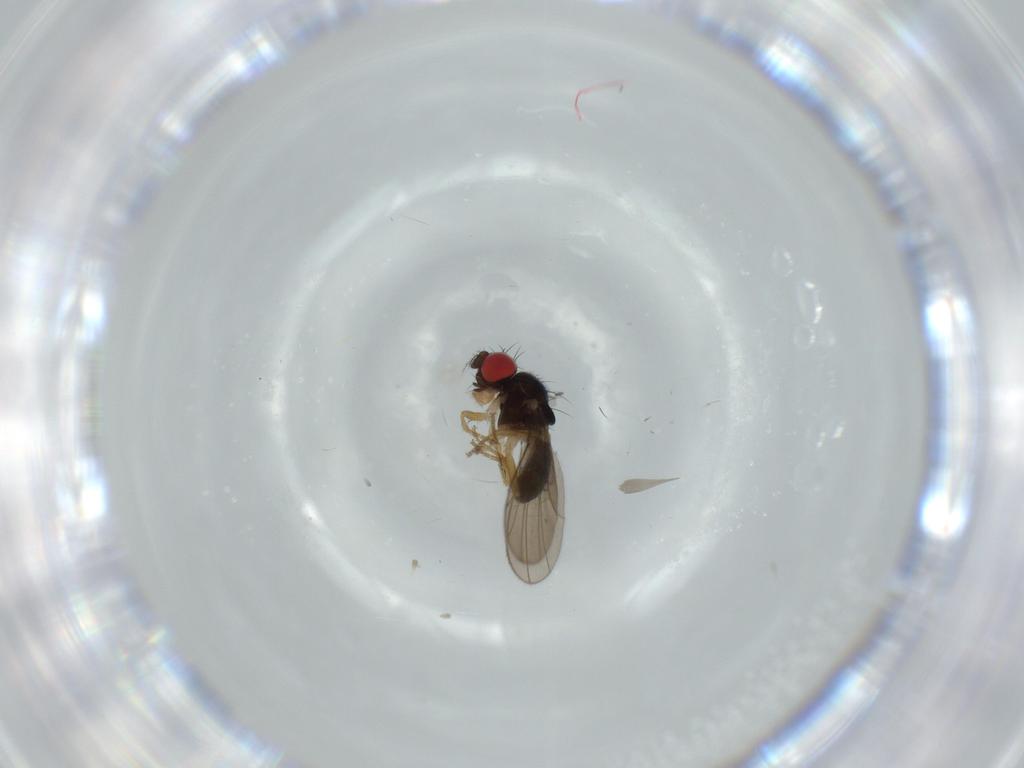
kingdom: Animalia
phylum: Arthropoda
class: Insecta
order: Diptera
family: Drosophilidae
